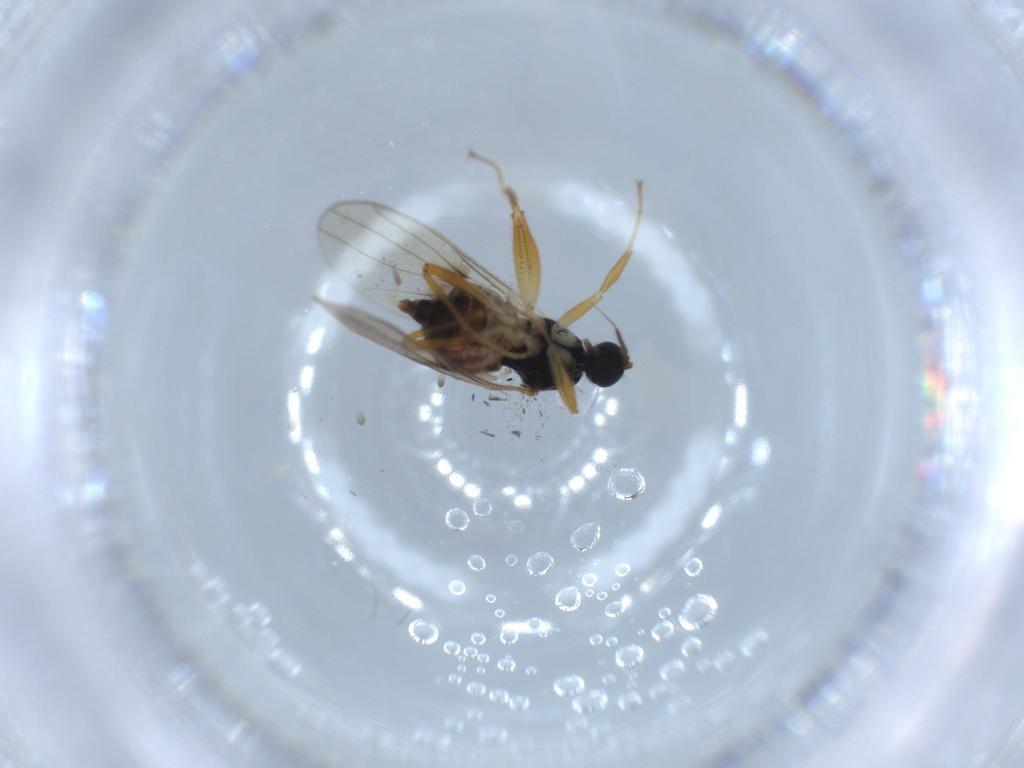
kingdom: Animalia
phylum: Arthropoda
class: Insecta
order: Diptera
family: Hybotidae
